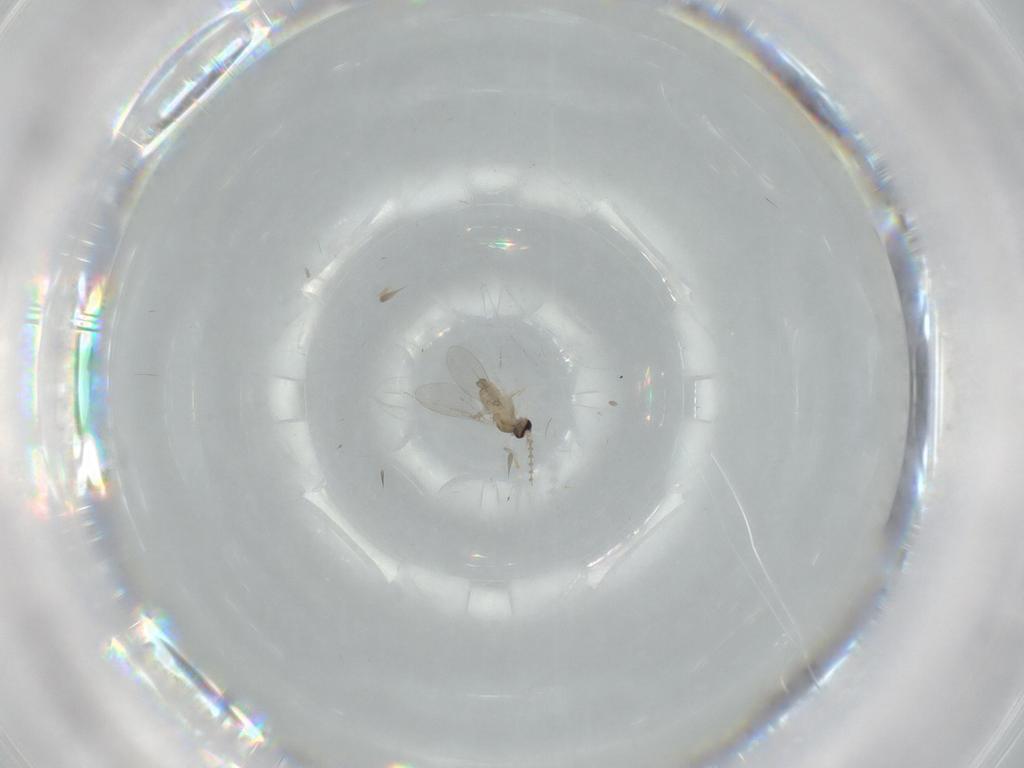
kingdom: Animalia
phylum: Arthropoda
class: Insecta
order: Diptera
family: Cecidomyiidae
